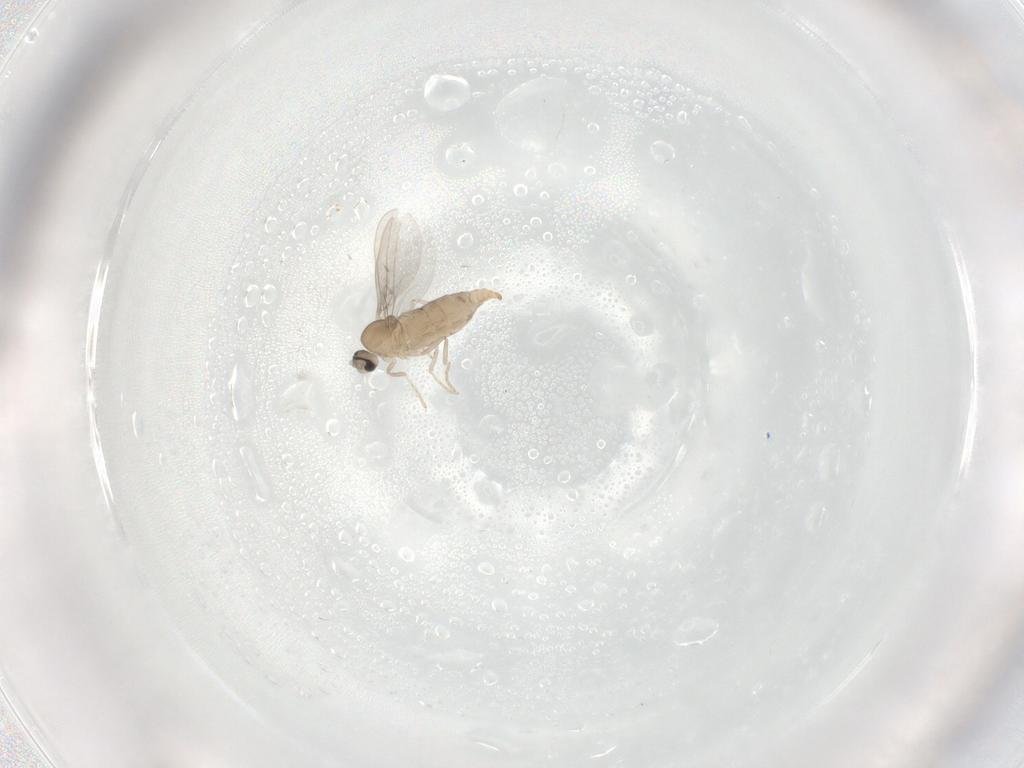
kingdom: Animalia
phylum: Arthropoda
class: Insecta
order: Diptera
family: Cecidomyiidae
